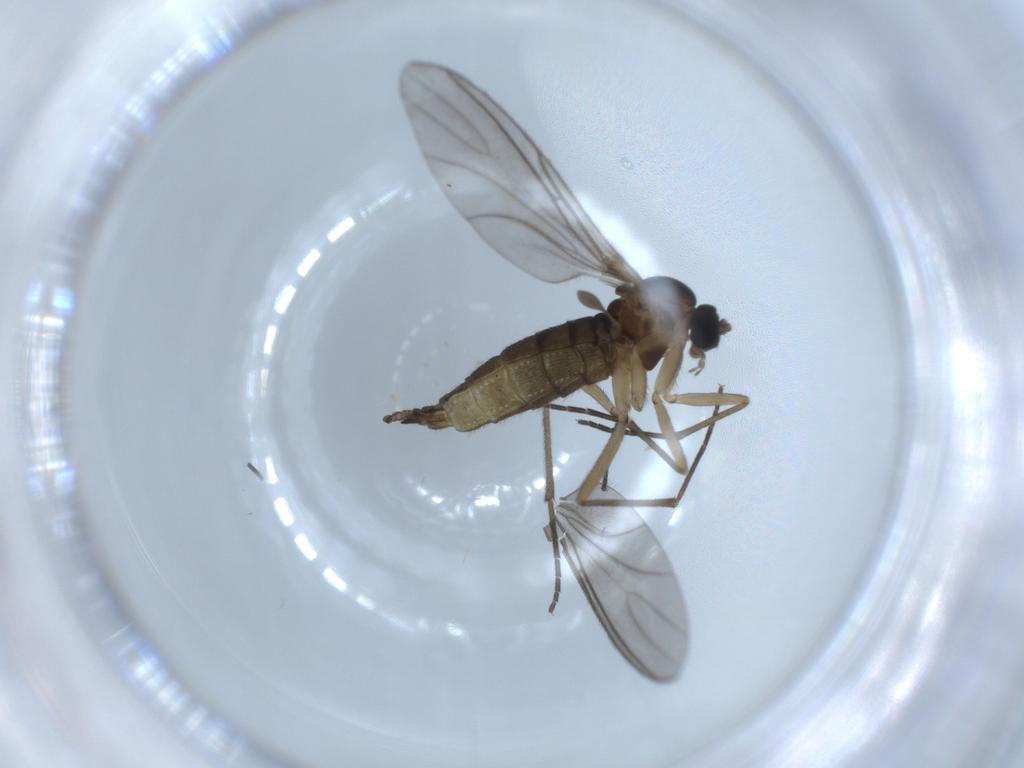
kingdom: Animalia
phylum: Arthropoda
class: Insecta
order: Diptera
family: Sciaridae
